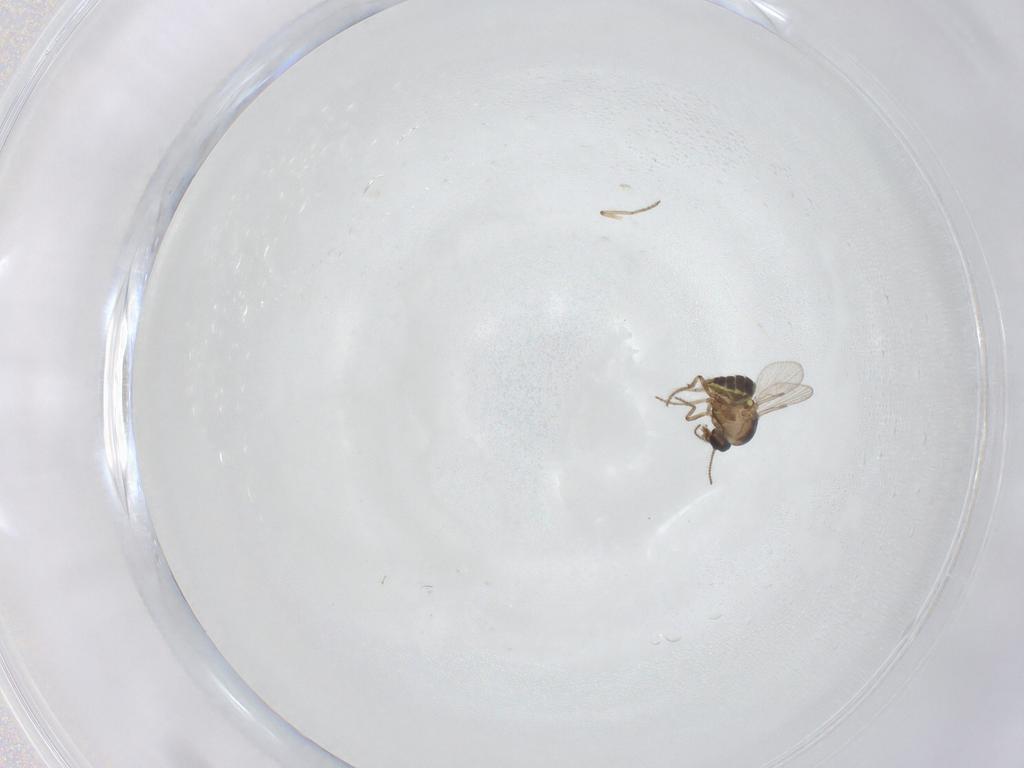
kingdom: Animalia
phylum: Arthropoda
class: Insecta
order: Diptera
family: Ceratopogonidae
